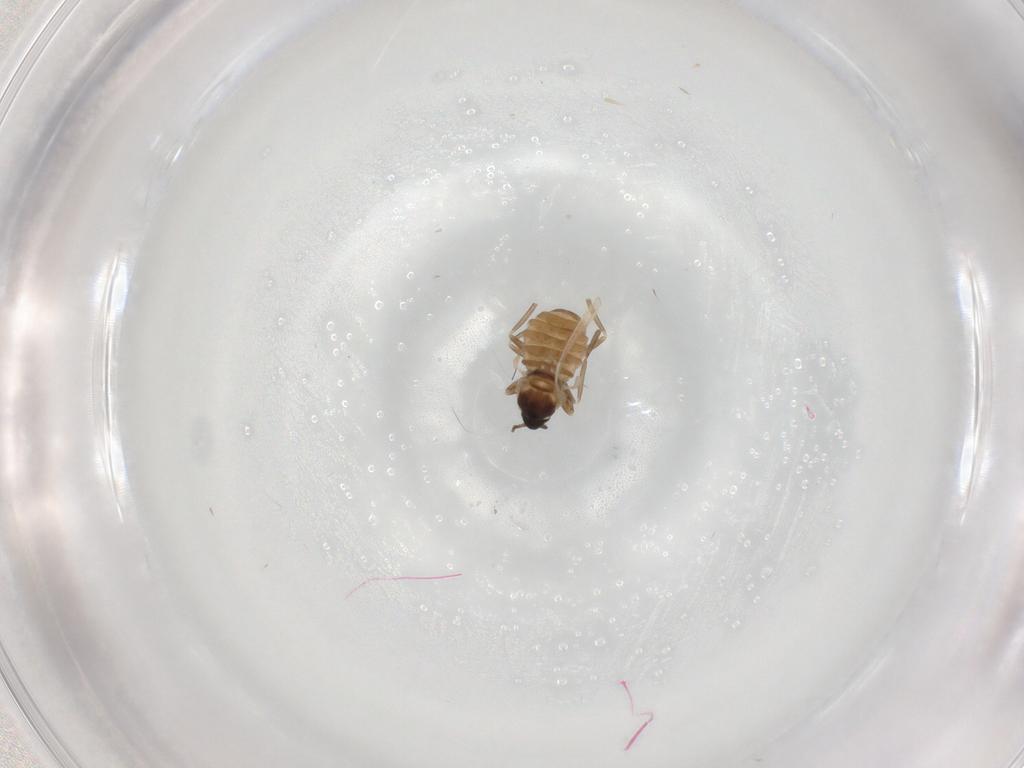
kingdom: Animalia
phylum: Arthropoda
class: Insecta
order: Diptera
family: Cecidomyiidae
